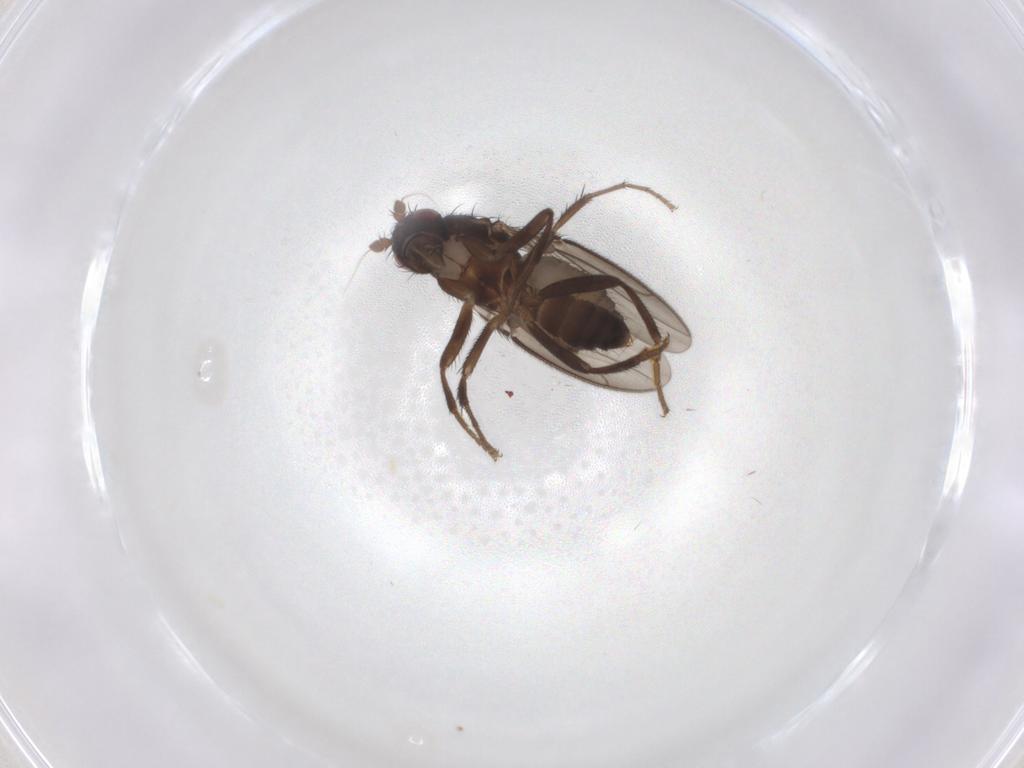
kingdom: Animalia
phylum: Arthropoda
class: Insecta
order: Diptera
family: Sphaeroceridae
